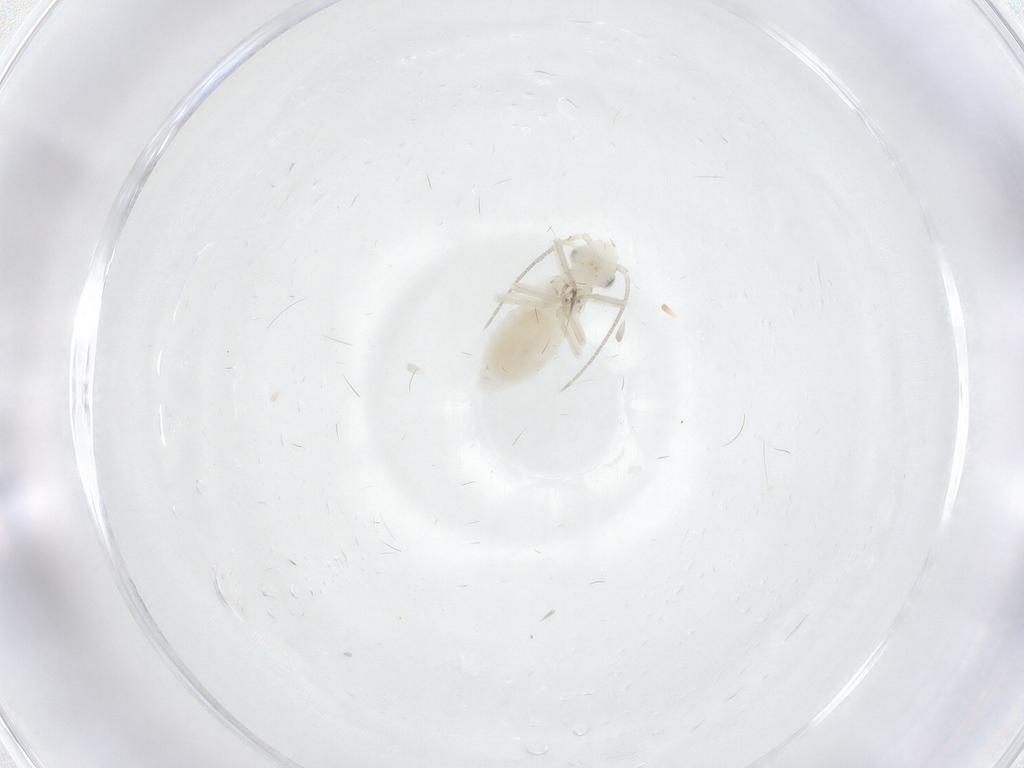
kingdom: Animalia
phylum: Arthropoda
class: Insecta
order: Psocodea
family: Caeciliusidae
